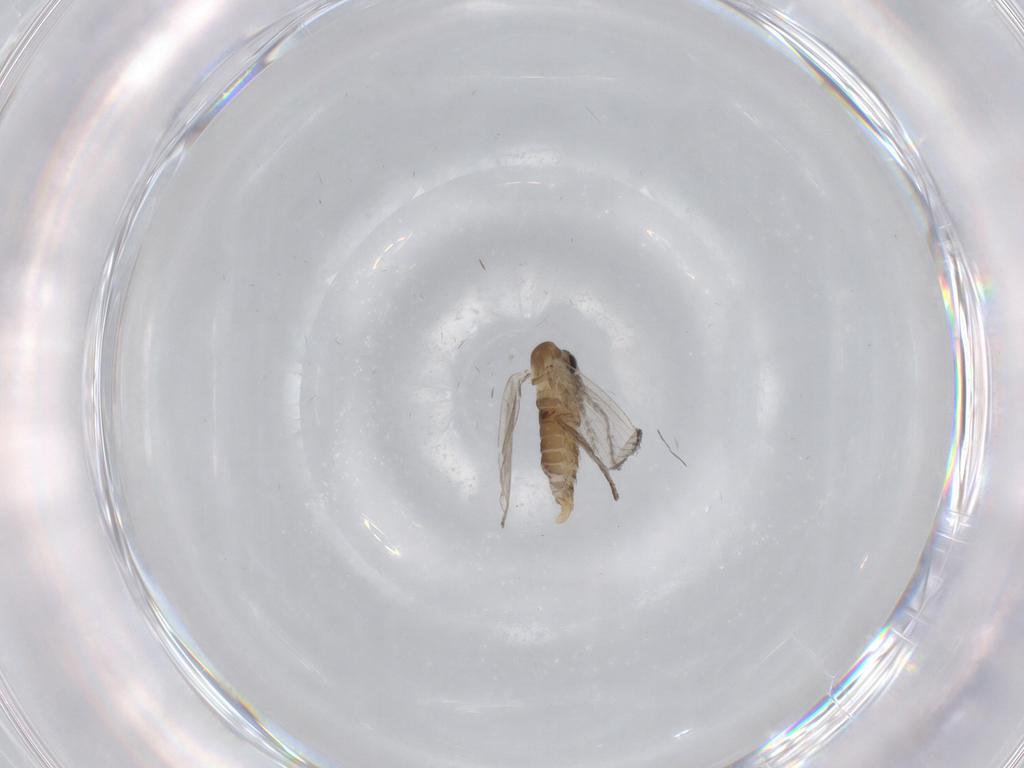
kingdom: Animalia
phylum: Arthropoda
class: Insecta
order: Diptera
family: Psychodidae
